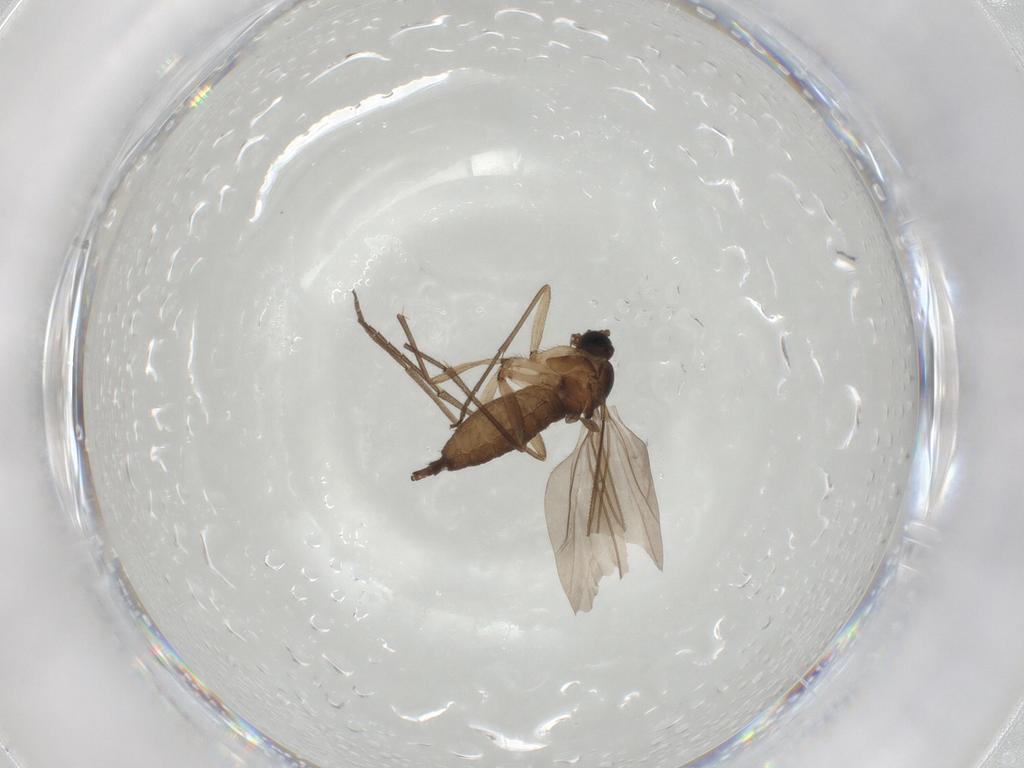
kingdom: Animalia
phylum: Arthropoda
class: Insecta
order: Diptera
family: Sciaridae
